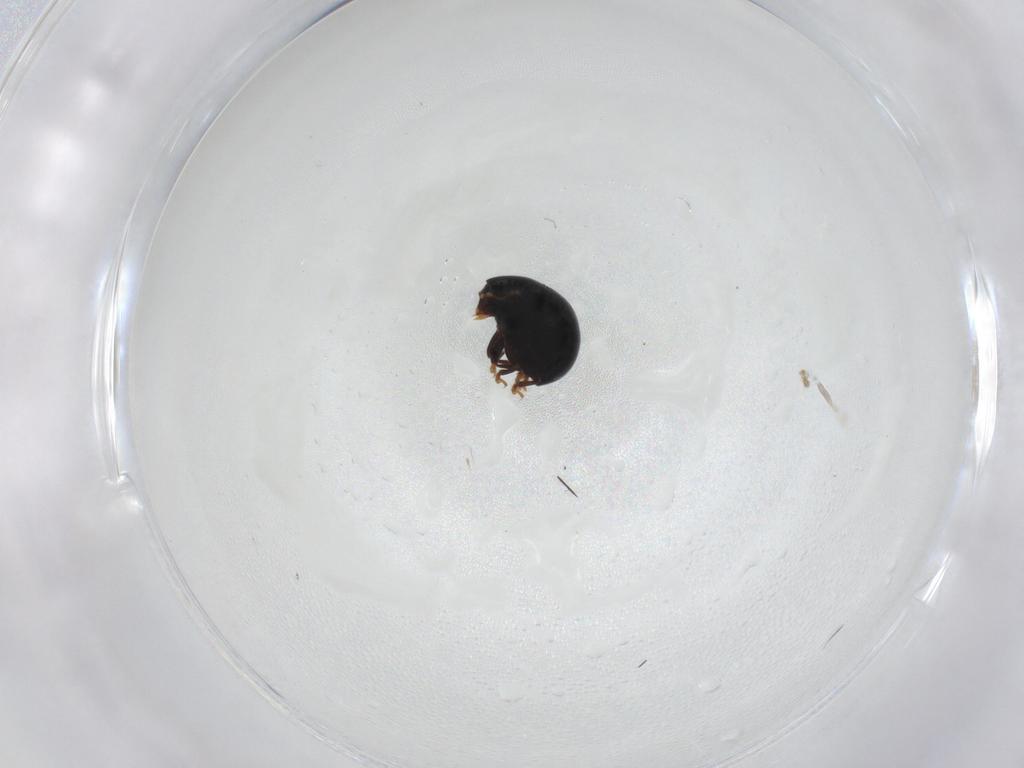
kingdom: Animalia
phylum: Arthropoda
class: Insecta
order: Coleoptera
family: Anthribidae
